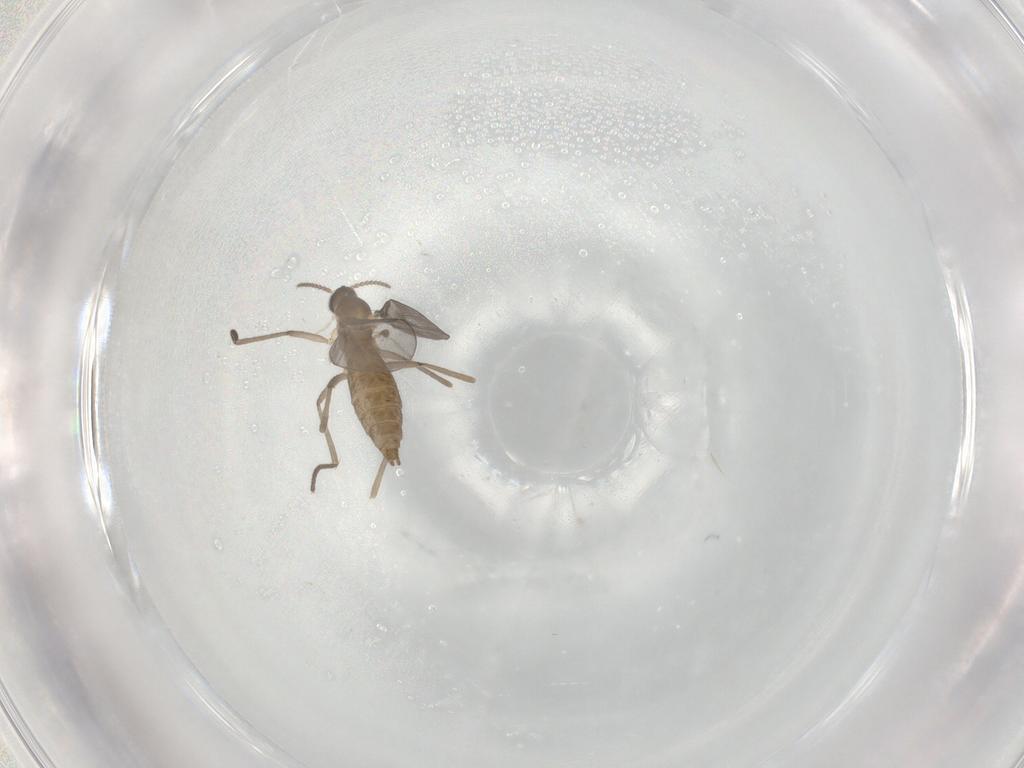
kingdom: Animalia
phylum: Arthropoda
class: Insecta
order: Diptera
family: Cecidomyiidae
